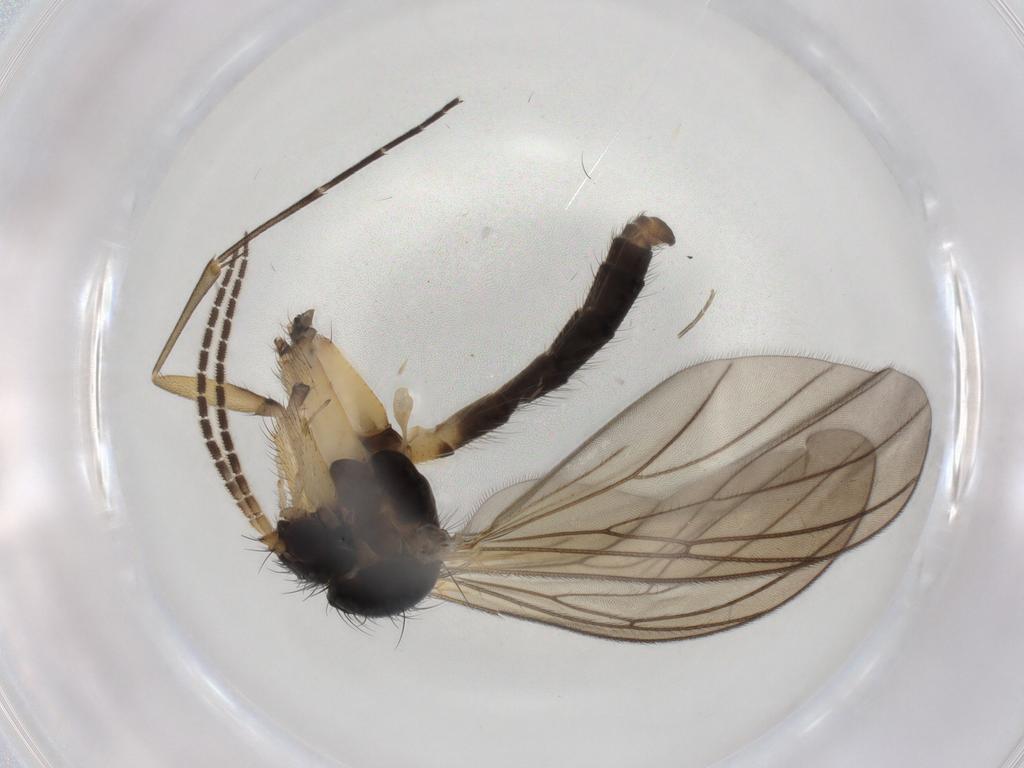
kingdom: Animalia
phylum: Arthropoda
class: Insecta
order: Diptera
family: Mycetophilidae
